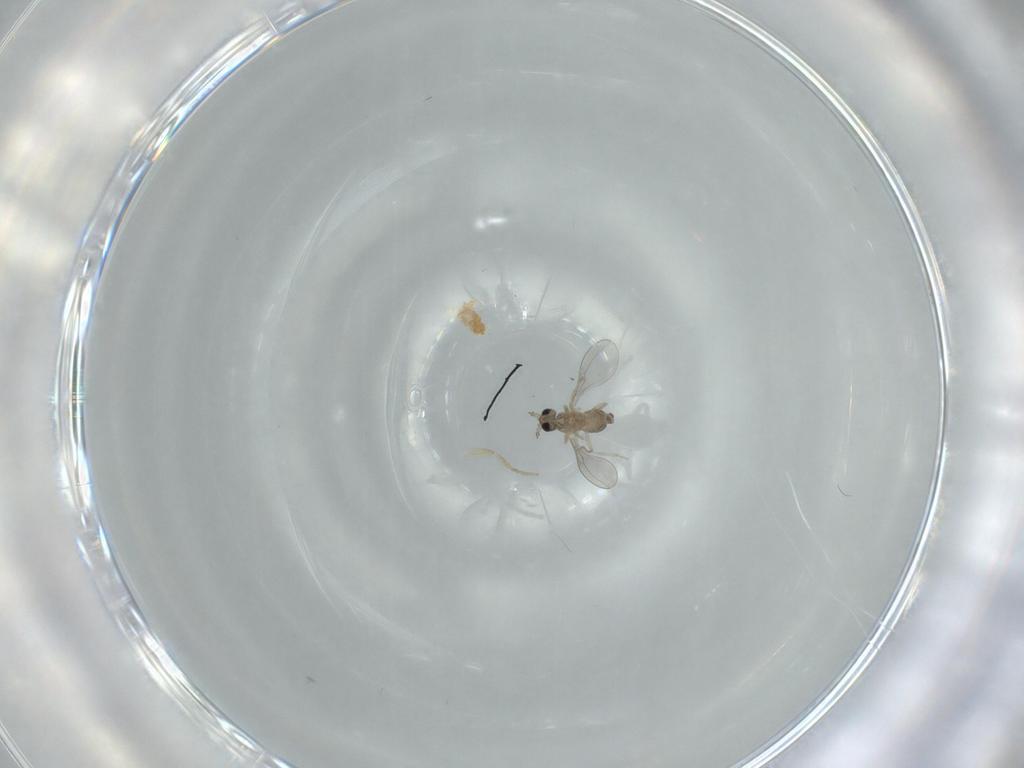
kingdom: Animalia
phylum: Arthropoda
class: Insecta
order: Diptera
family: Cecidomyiidae
